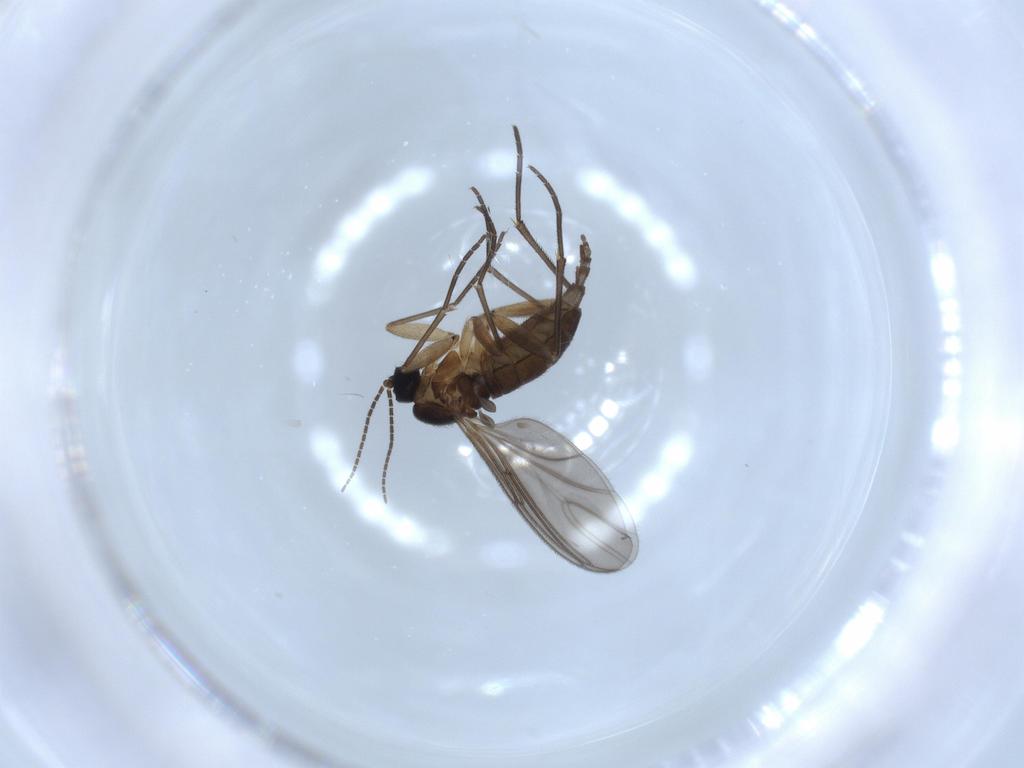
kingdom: Animalia
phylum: Arthropoda
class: Insecta
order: Diptera
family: Sciaridae
